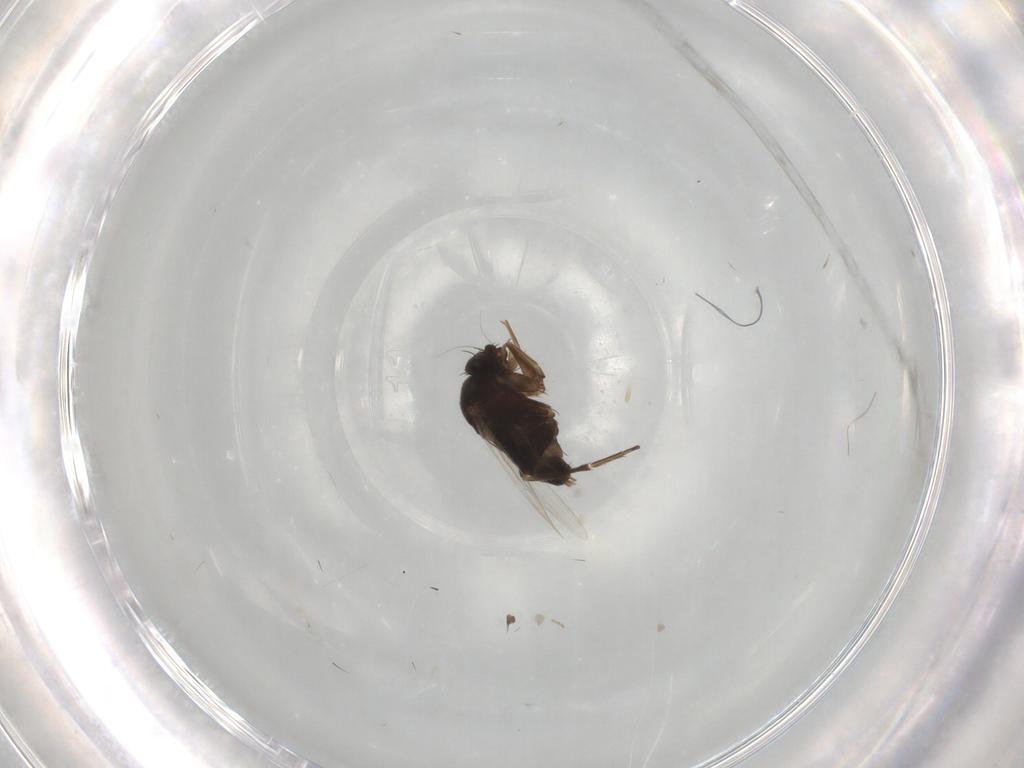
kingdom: Animalia
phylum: Arthropoda
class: Insecta
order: Diptera
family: Phoridae
